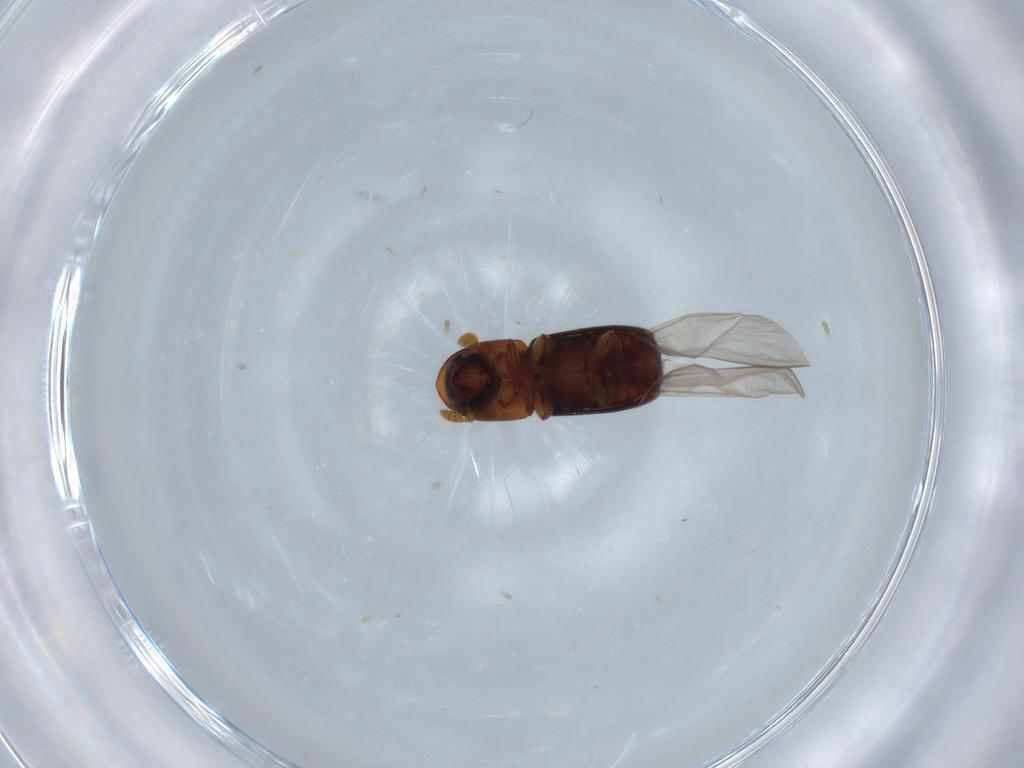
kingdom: Animalia
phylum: Arthropoda
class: Insecta
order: Coleoptera
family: Curculionidae
